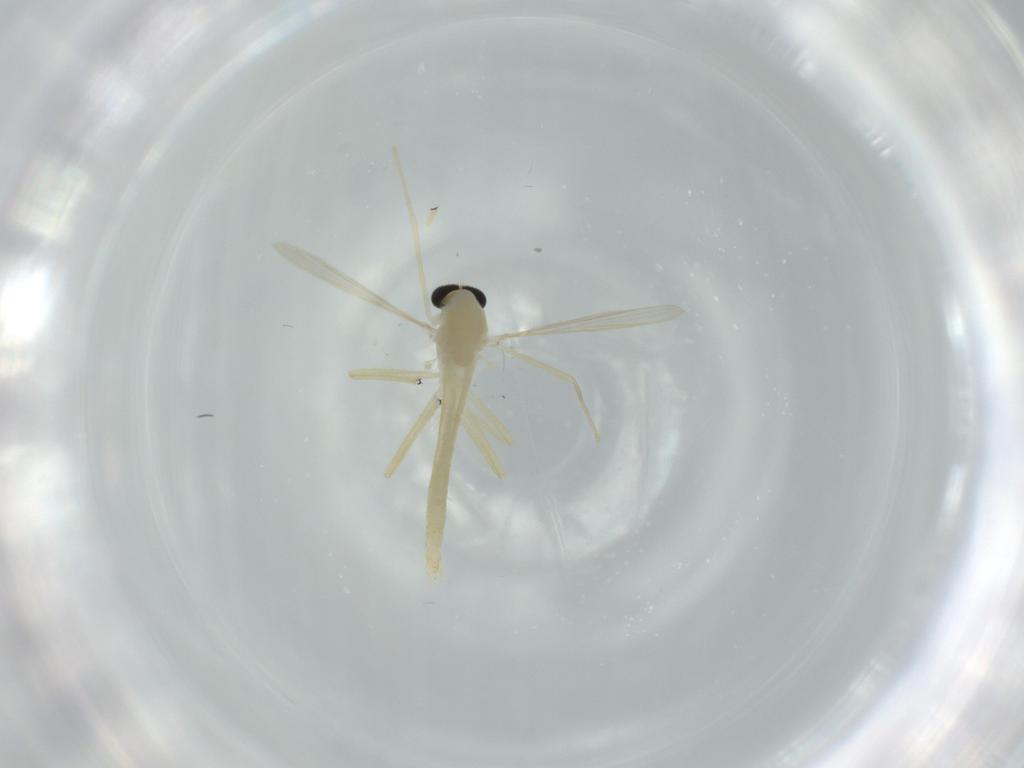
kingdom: Animalia
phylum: Arthropoda
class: Insecta
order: Diptera
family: Chironomidae
